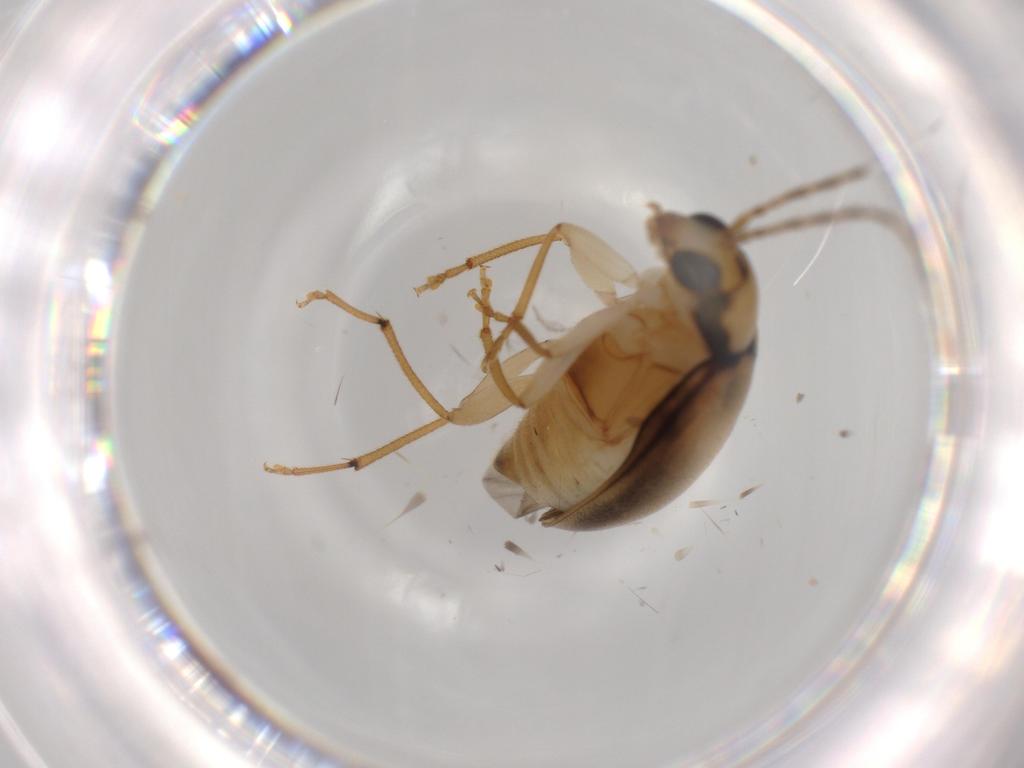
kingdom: Animalia
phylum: Arthropoda
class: Insecta
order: Coleoptera
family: Chrysomelidae
